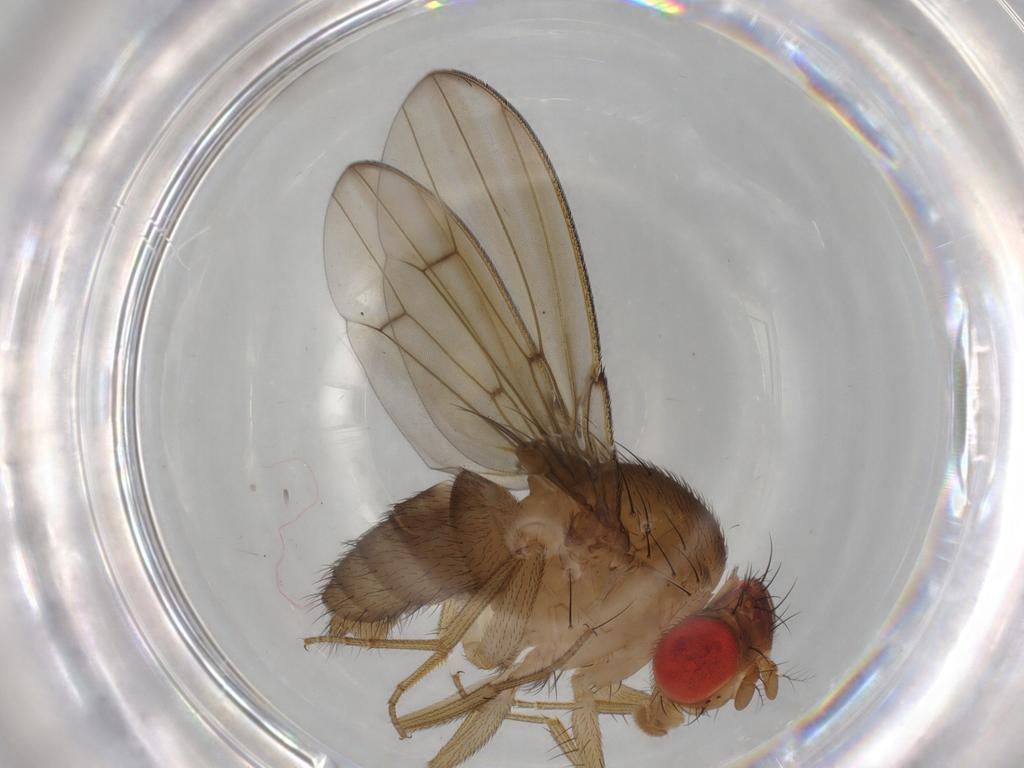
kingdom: Animalia
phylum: Arthropoda
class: Insecta
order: Diptera
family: Drosophilidae
